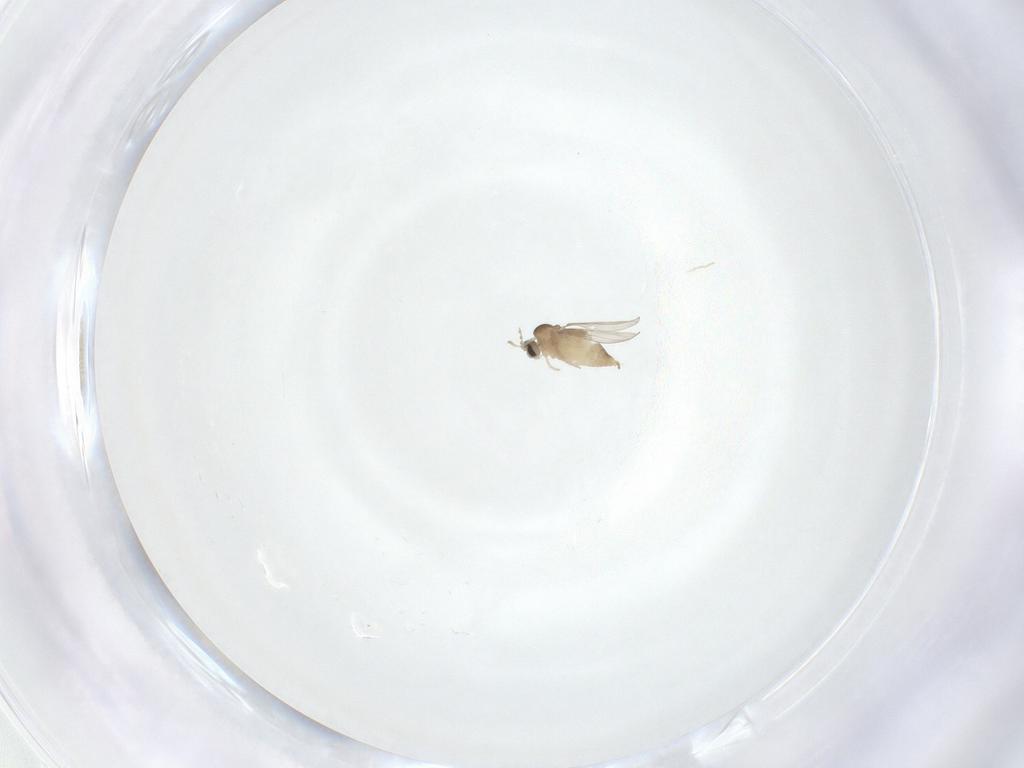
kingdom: Animalia
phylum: Arthropoda
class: Insecta
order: Diptera
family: Cecidomyiidae
